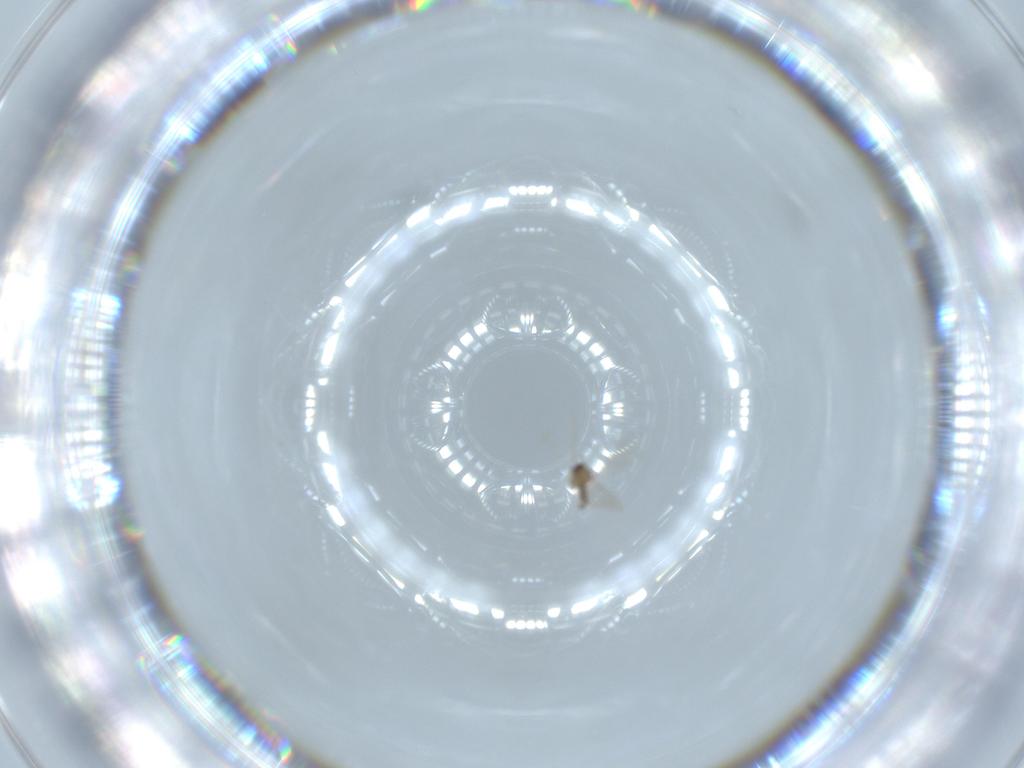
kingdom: Animalia
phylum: Arthropoda
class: Insecta
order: Diptera
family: Cecidomyiidae
